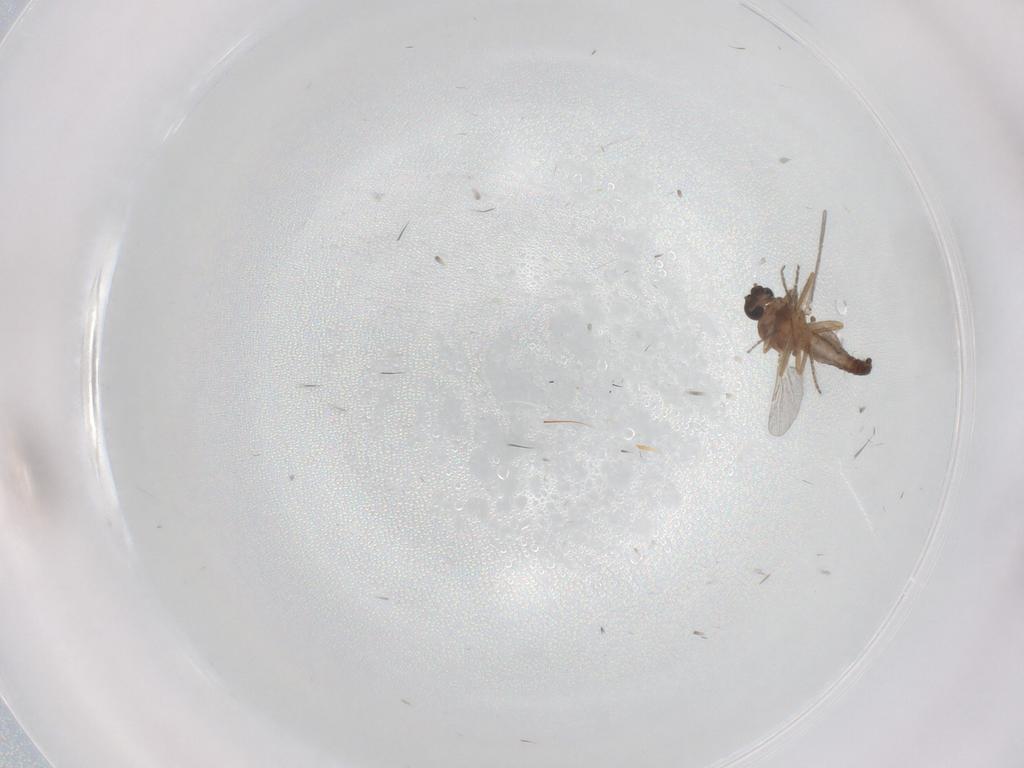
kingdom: Animalia
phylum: Arthropoda
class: Insecta
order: Diptera
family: Ceratopogonidae
